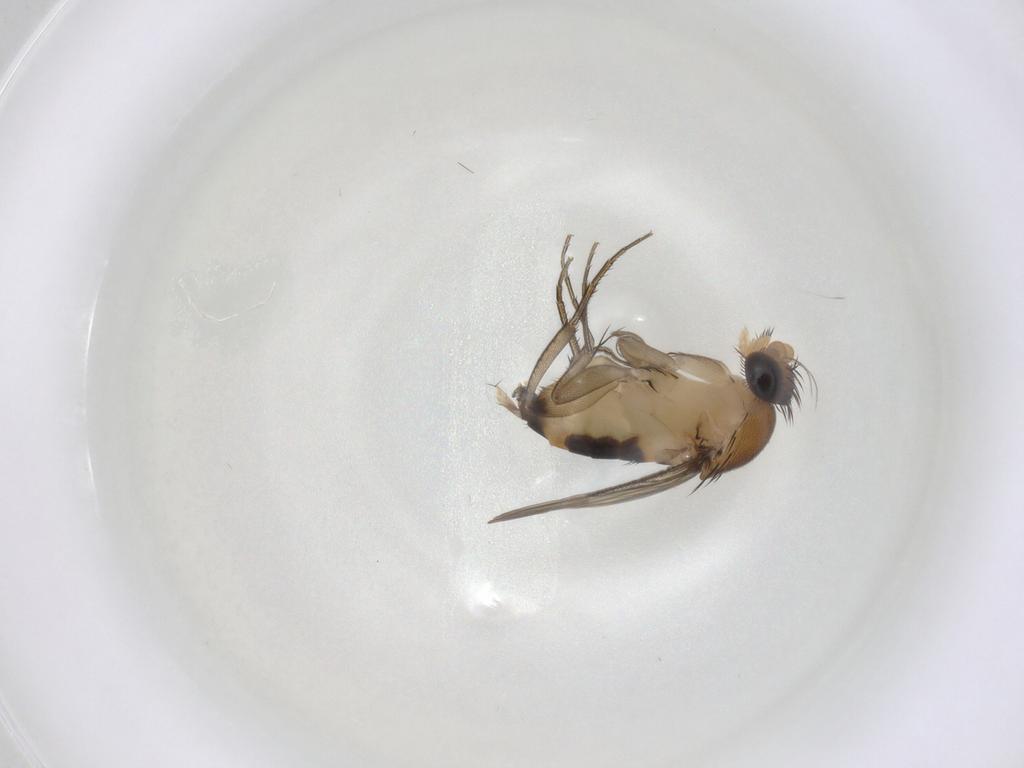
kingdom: Animalia
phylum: Arthropoda
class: Insecta
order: Diptera
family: Phoridae
